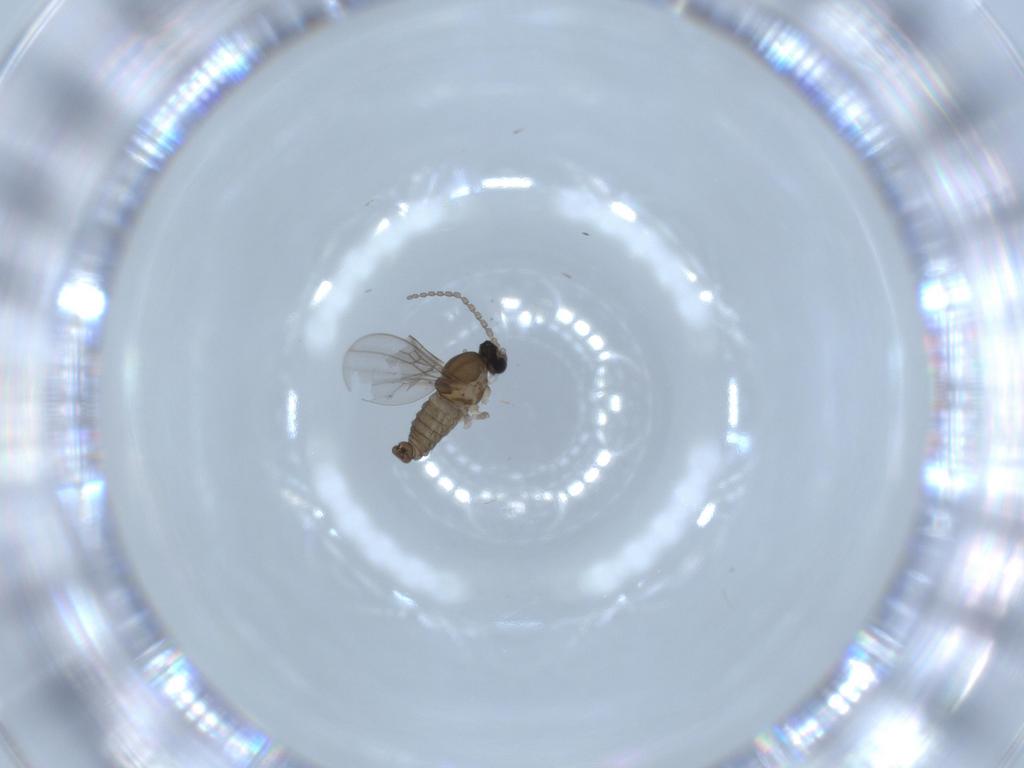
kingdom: Animalia
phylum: Arthropoda
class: Insecta
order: Diptera
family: Cecidomyiidae
